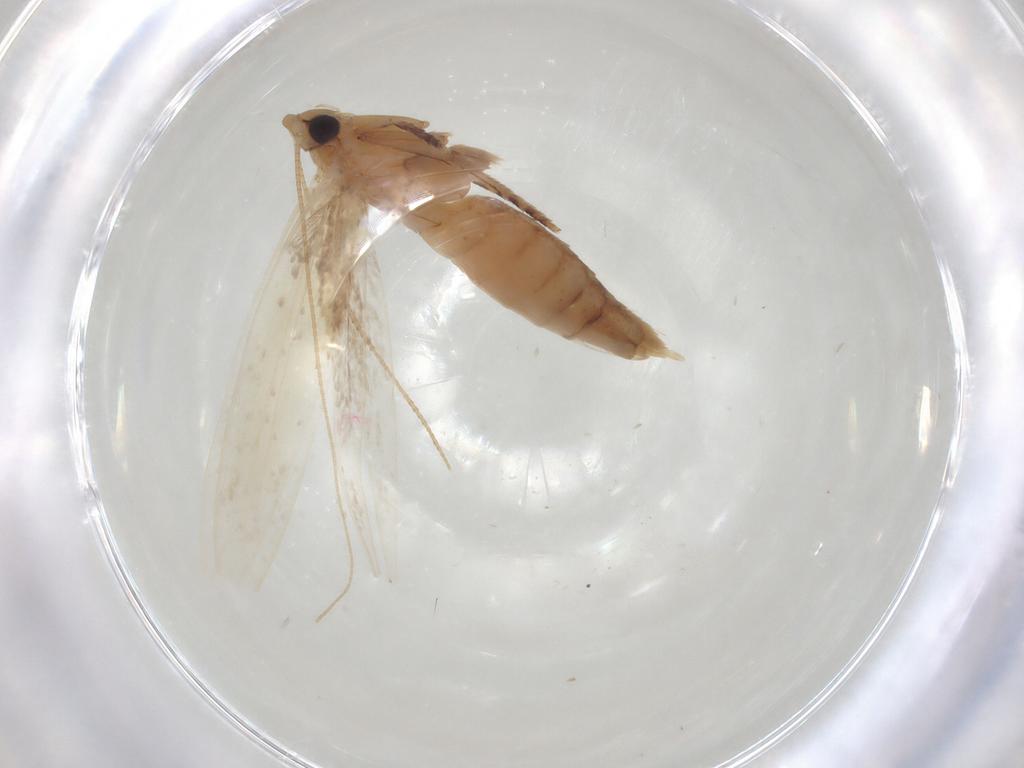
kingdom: Animalia
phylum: Arthropoda
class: Insecta
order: Lepidoptera
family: Tineidae
